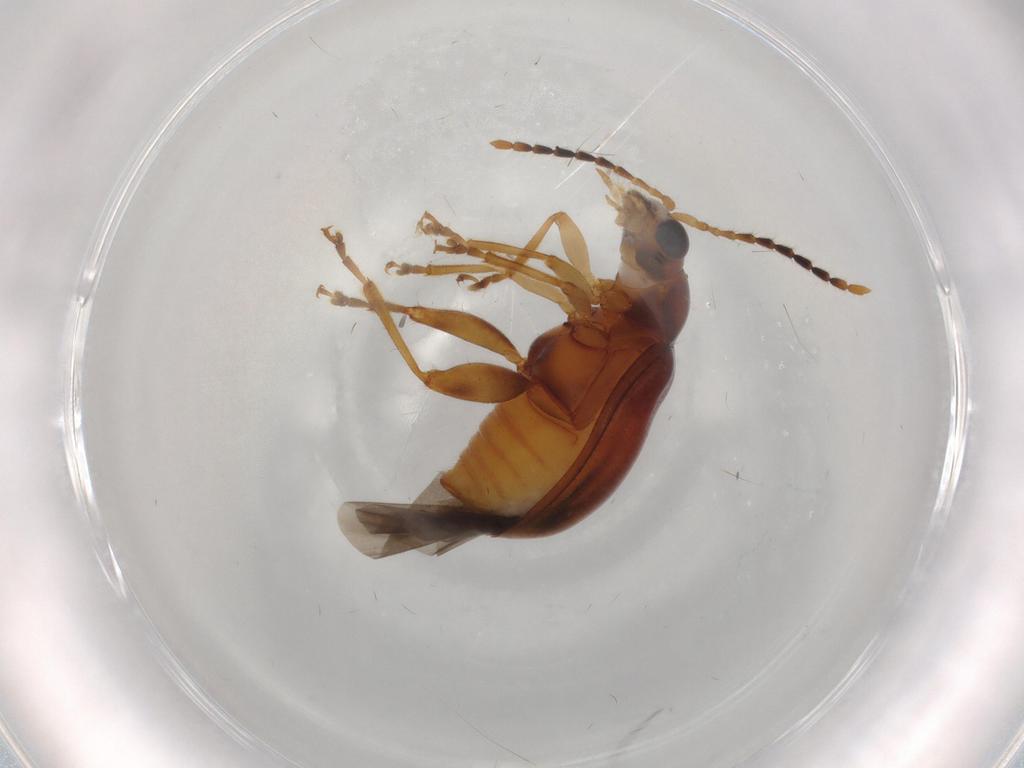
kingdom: Animalia
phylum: Arthropoda
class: Insecta
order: Coleoptera
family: Chrysomelidae
